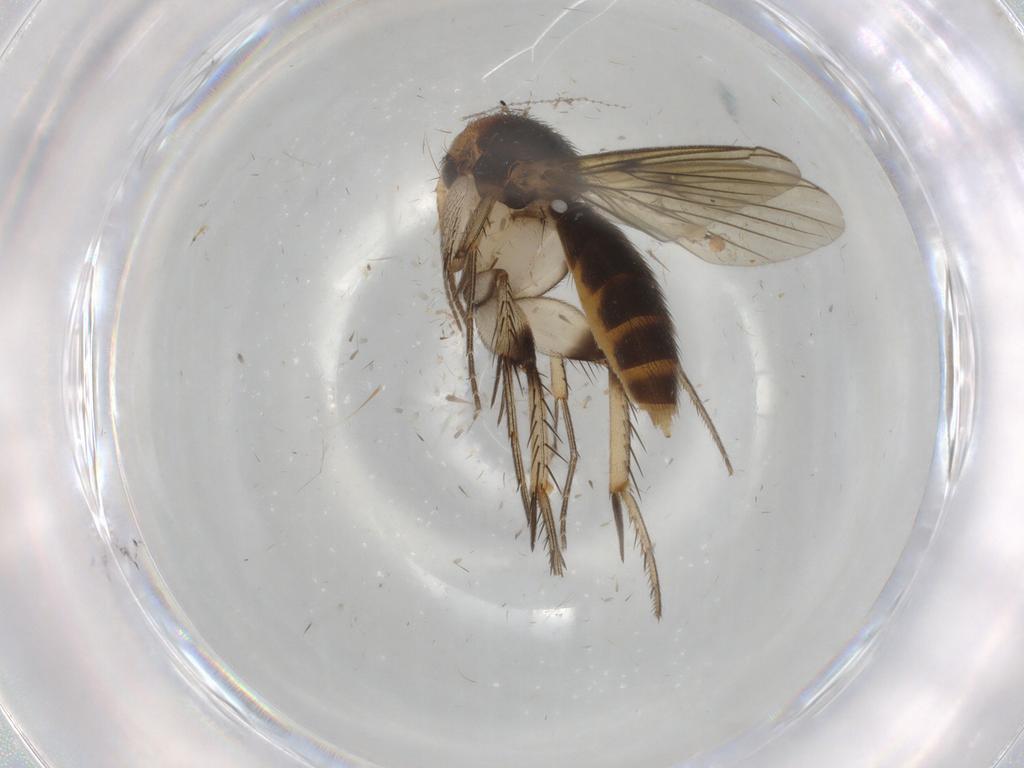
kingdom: Animalia
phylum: Arthropoda
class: Insecta
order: Diptera
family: Mycetophilidae
